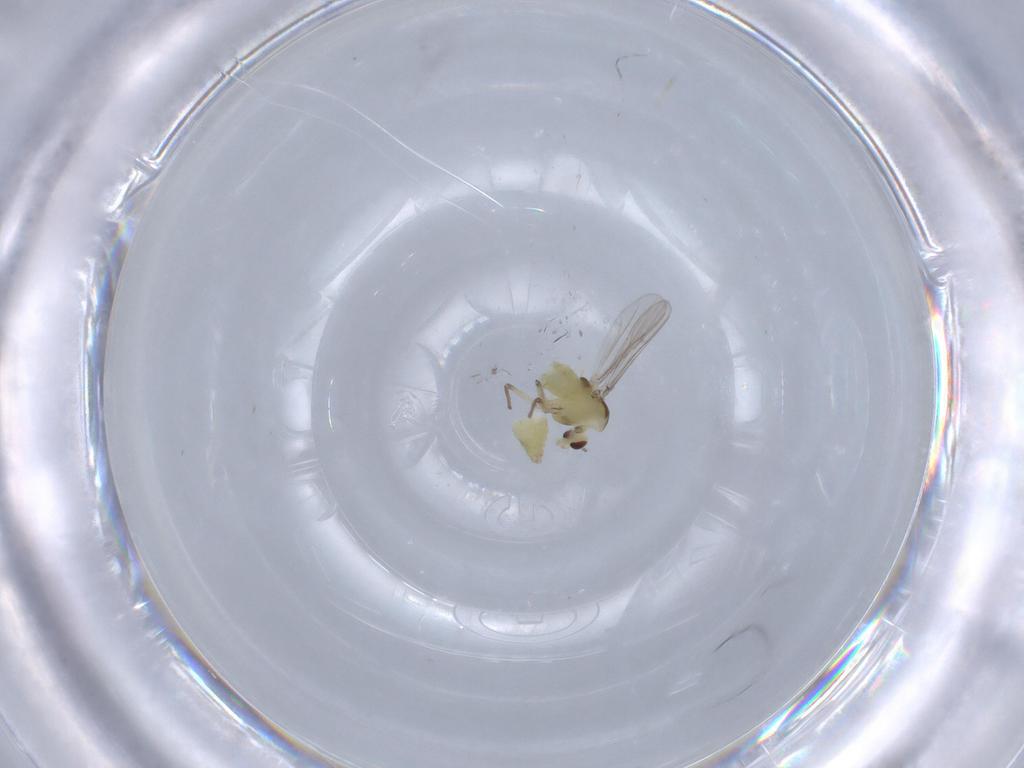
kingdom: Animalia
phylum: Arthropoda
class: Insecta
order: Diptera
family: Chironomidae
